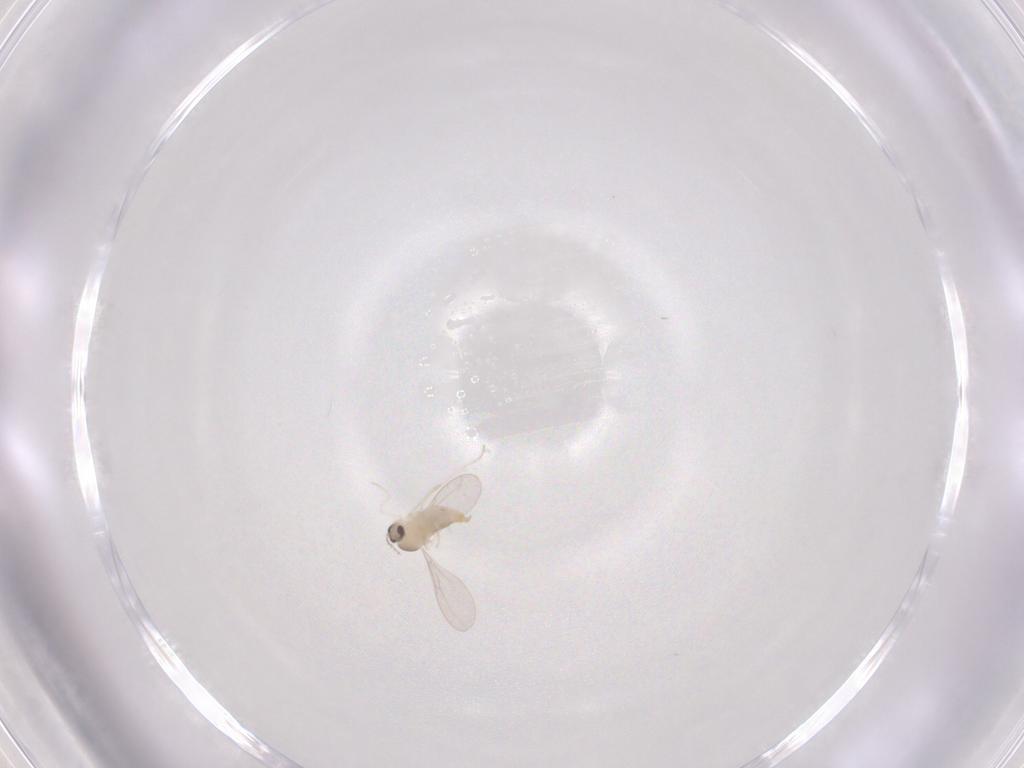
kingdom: Animalia
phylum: Arthropoda
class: Insecta
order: Diptera
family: Cecidomyiidae
